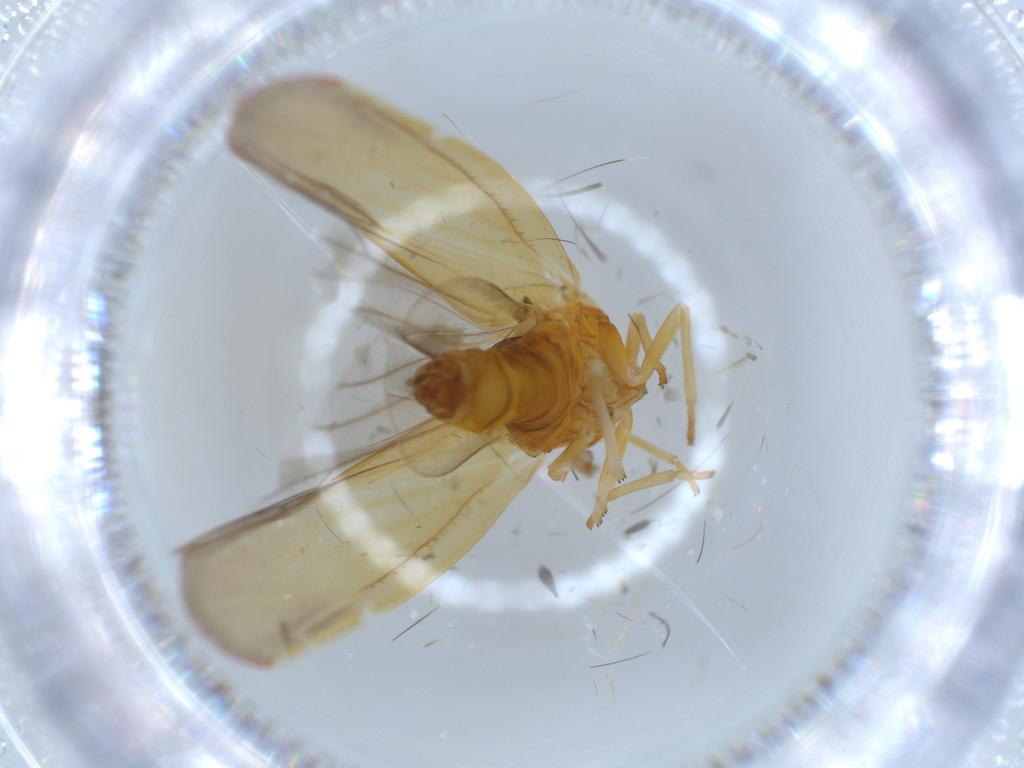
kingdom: Animalia
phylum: Arthropoda
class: Insecta
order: Hemiptera
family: Derbidae
